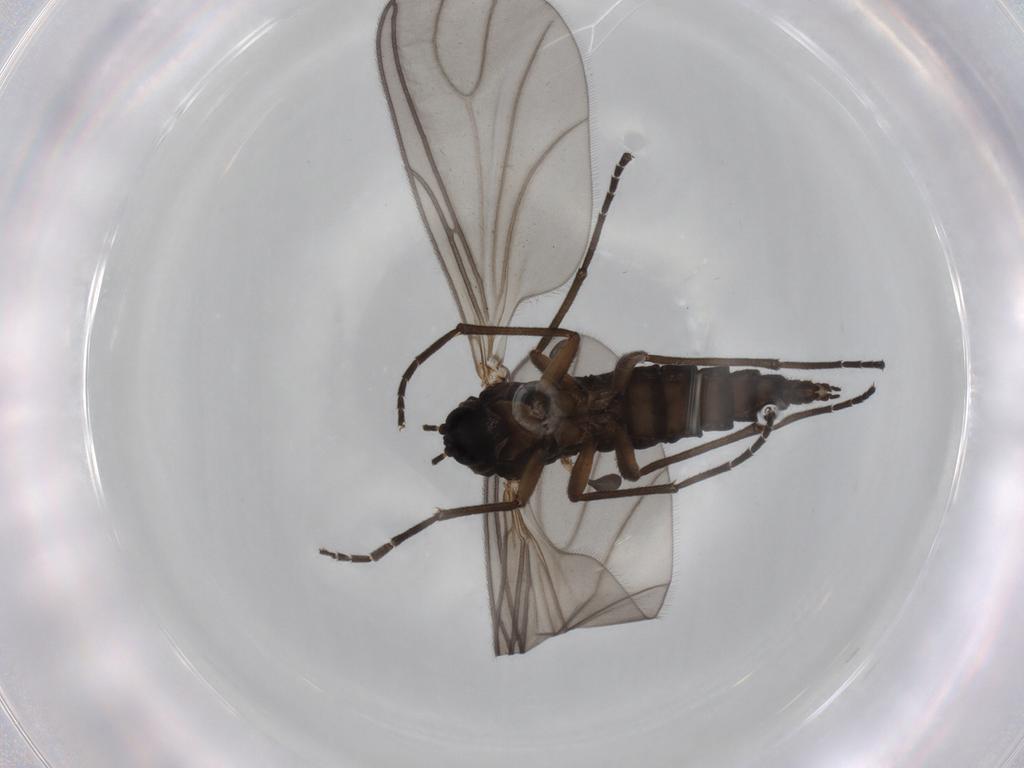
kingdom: Animalia
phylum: Arthropoda
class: Insecta
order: Diptera
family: Sciaridae
